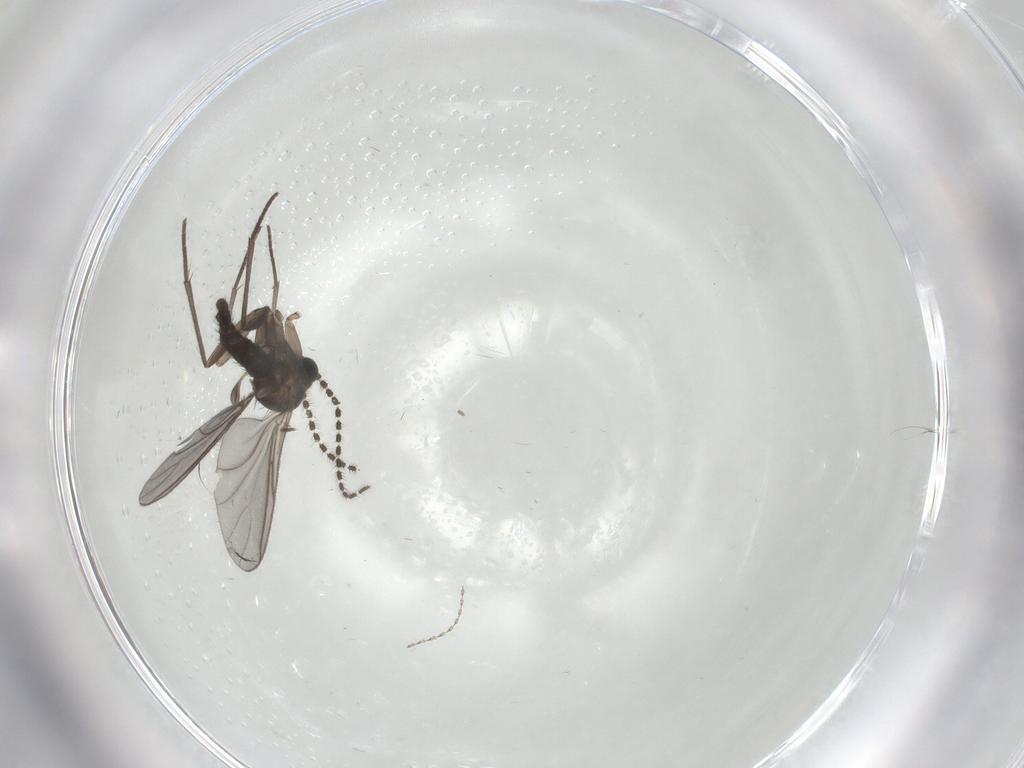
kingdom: Animalia
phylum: Arthropoda
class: Insecta
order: Diptera
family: Sciaridae
